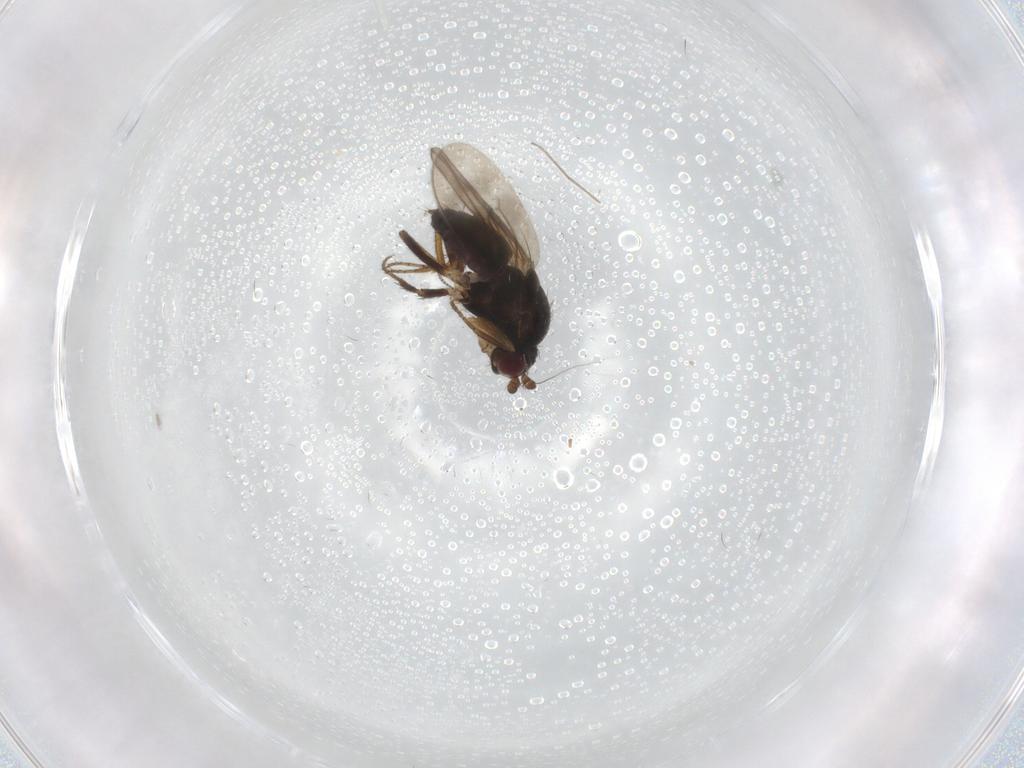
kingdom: Animalia
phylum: Arthropoda
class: Insecta
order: Diptera
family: Sphaeroceridae
